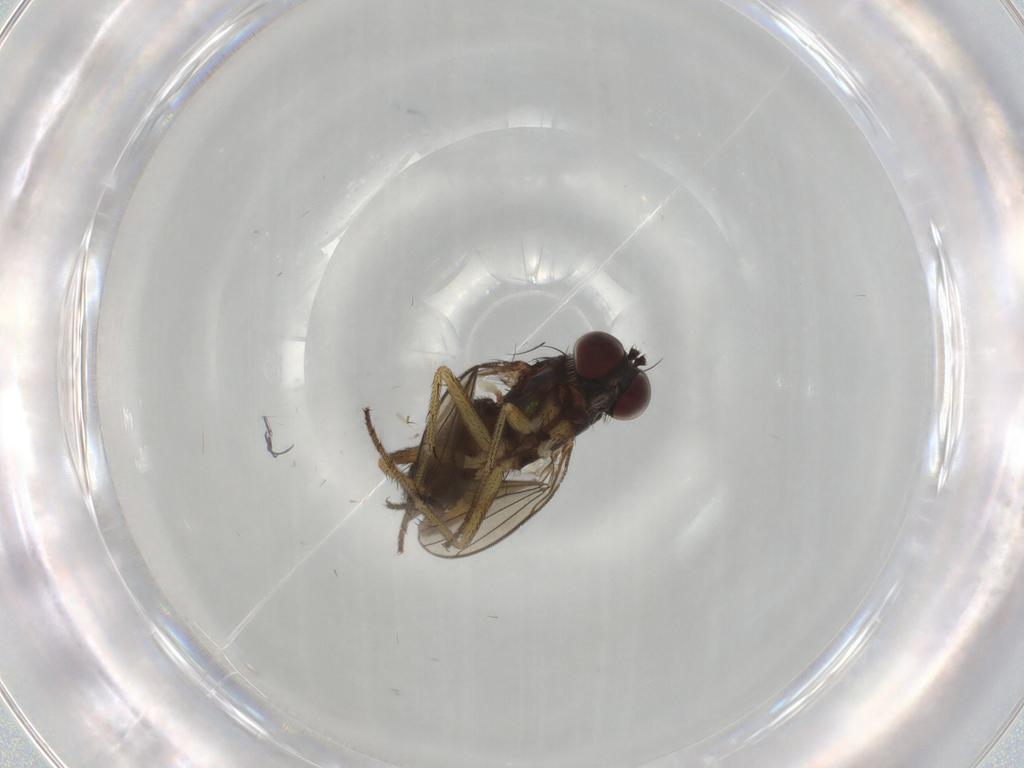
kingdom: Animalia
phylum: Arthropoda
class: Insecta
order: Diptera
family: Dolichopodidae
